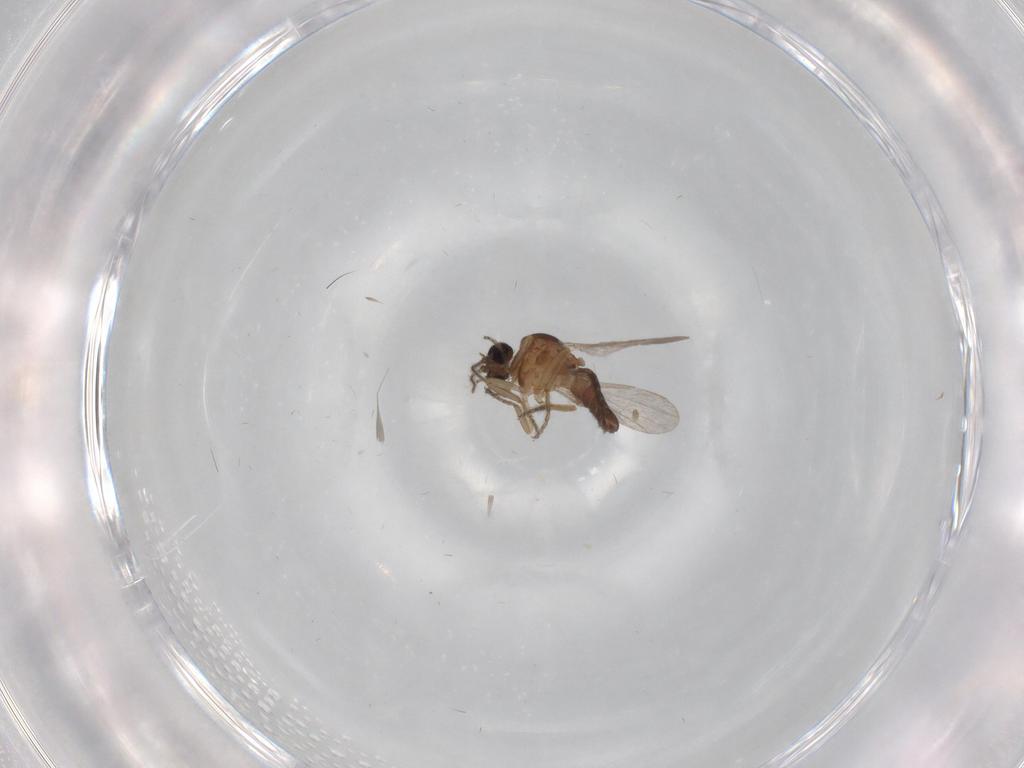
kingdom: Animalia
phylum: Arthropoda
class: Insecta
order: Diptera
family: Ceratopogonidae
